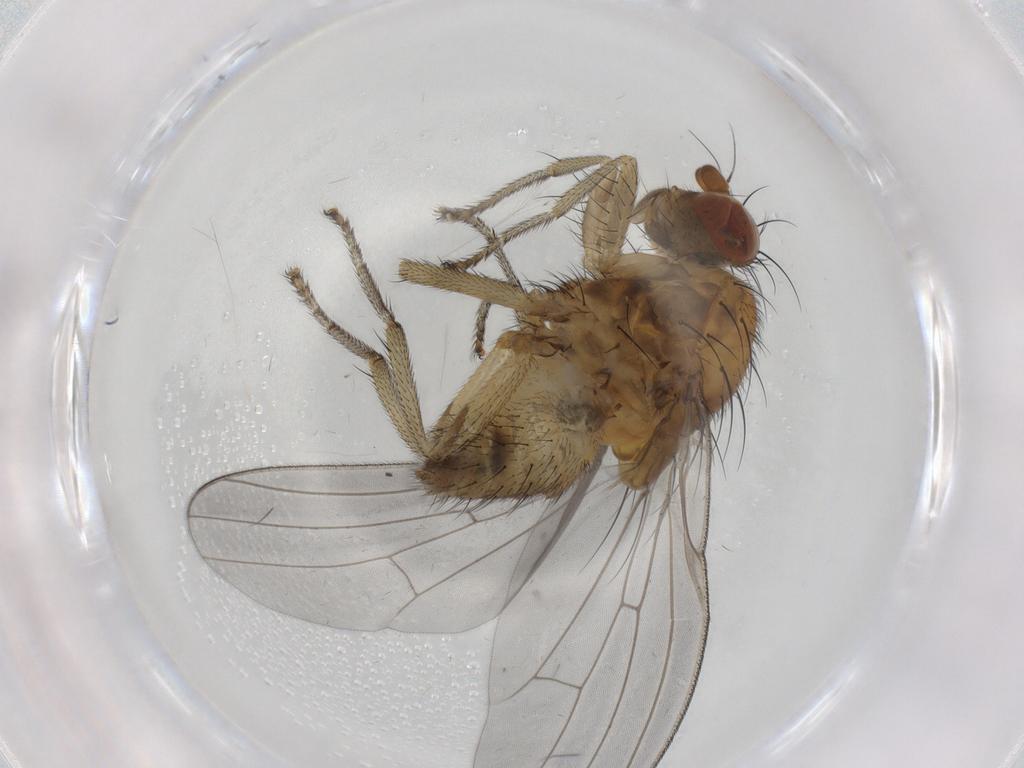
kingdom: Animalia
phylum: Arthropoda
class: Insecta
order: Diptera
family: Lauxaniidae
